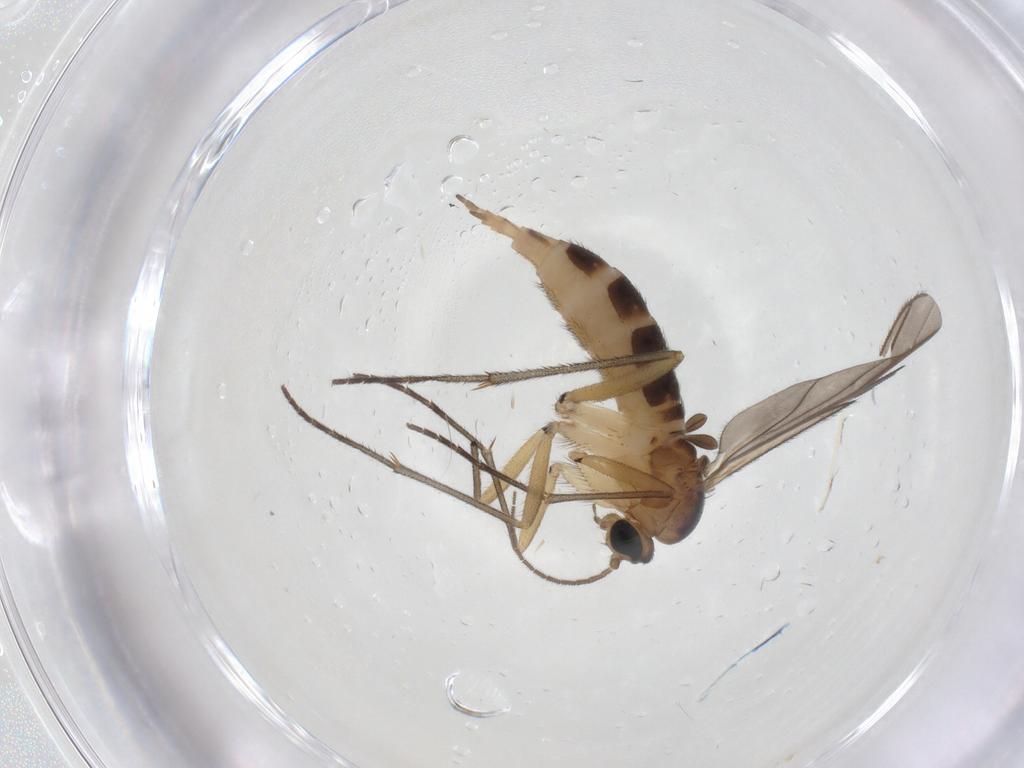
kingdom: Animalia
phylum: Arthropoda
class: Insecta
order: Diptera
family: Sciaridae
